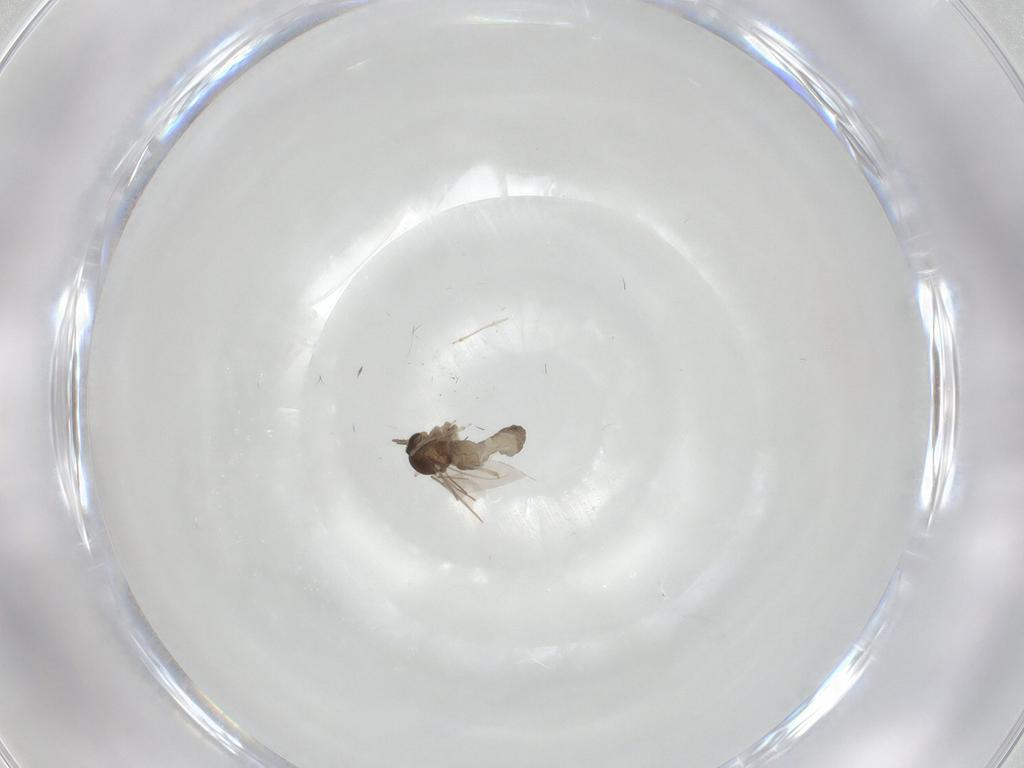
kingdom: Animalia
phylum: Arthropoda
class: Insecta
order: Diptera
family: Cecidomyiidae
